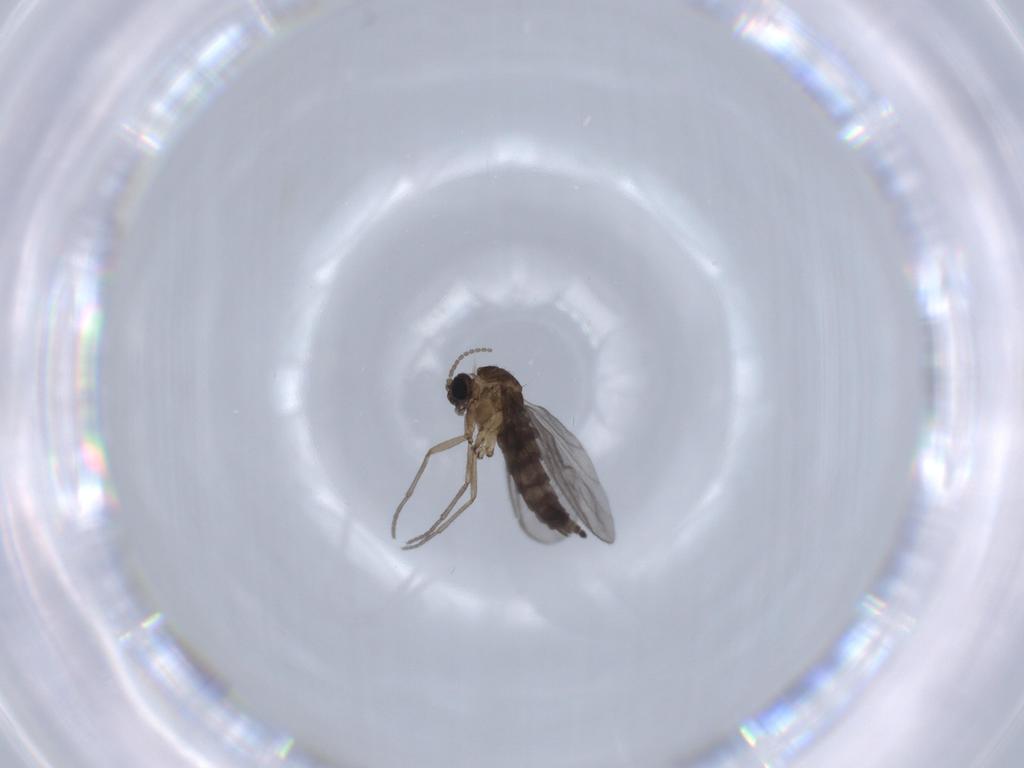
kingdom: Animalia
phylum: Arthropoda
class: Insecta
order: Diptera
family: Sciaridae
